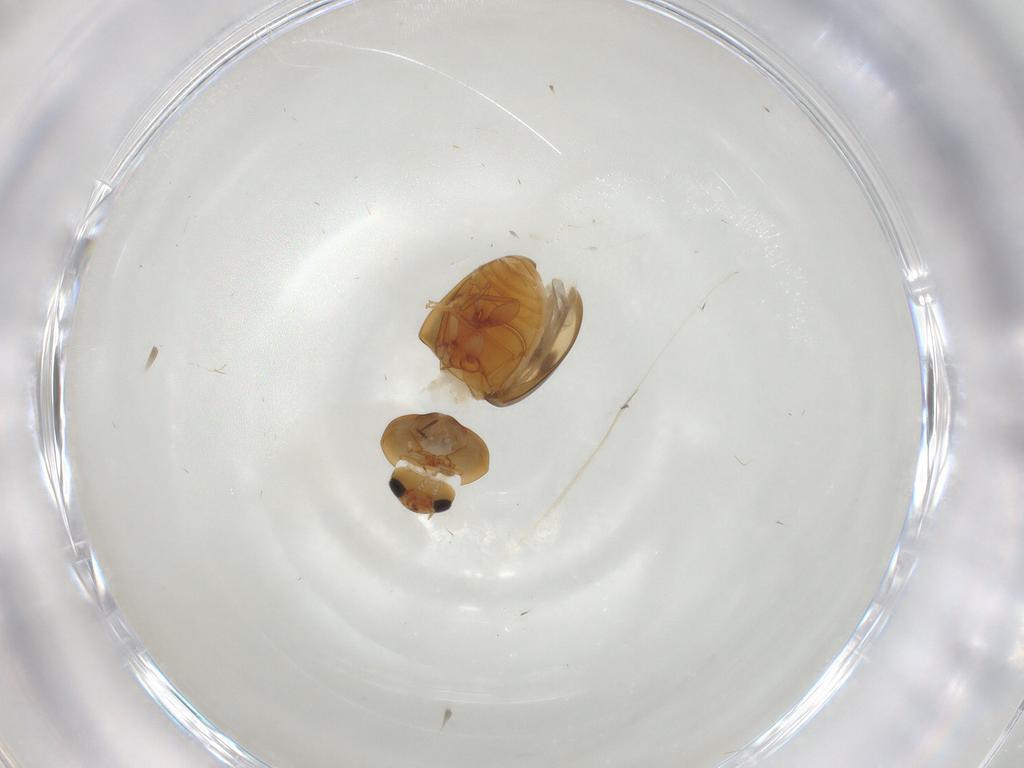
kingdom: Animalia
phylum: Arthropoda
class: Insecta
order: Coleoptera
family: Phalacridae
